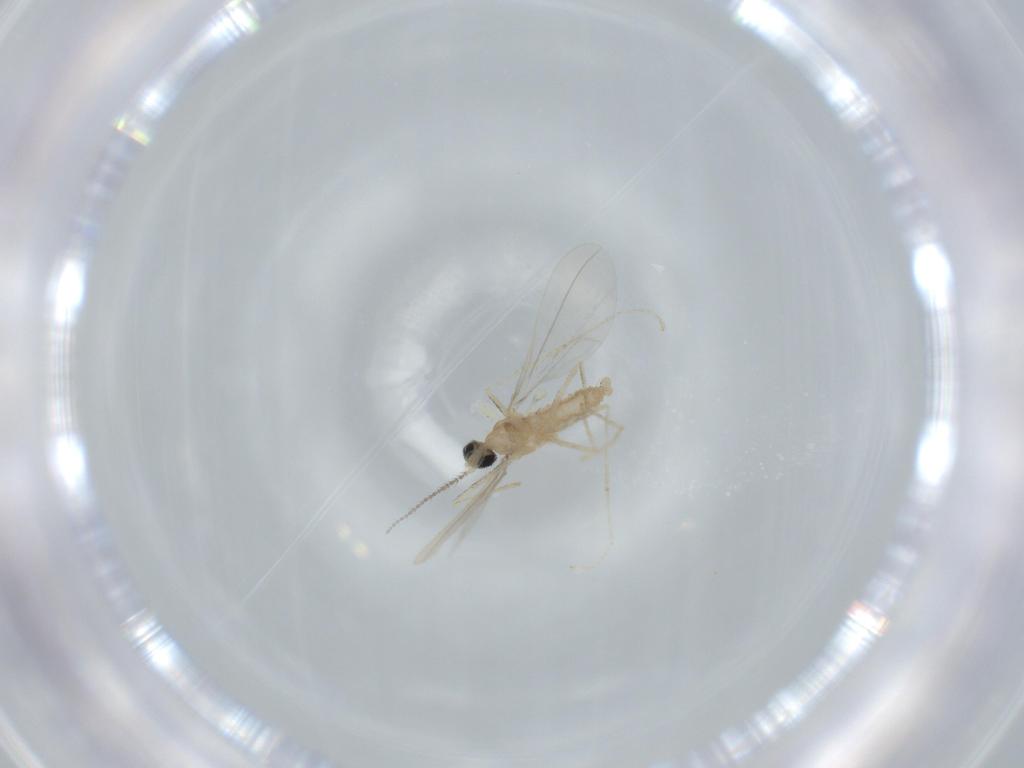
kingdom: Animalia
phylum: Arthropoda
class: Insecta
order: Diptera
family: Cecidomyiidae
